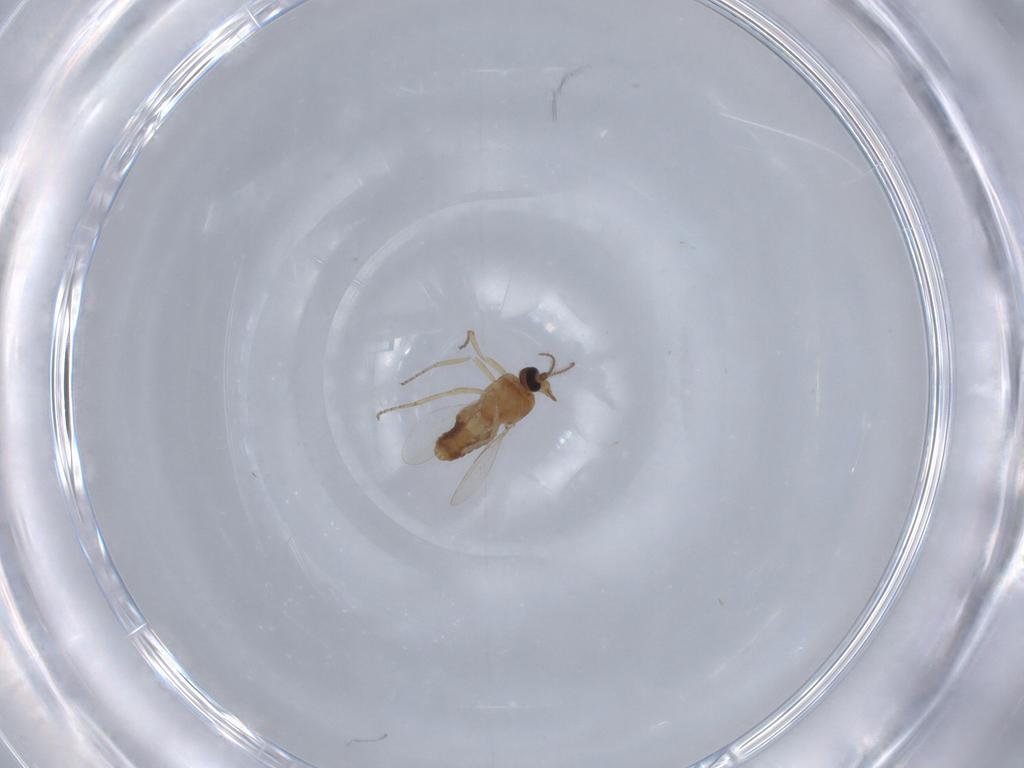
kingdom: Animalia
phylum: Arthropoda
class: Insecta
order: Diptera
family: Ceratopogonidae
